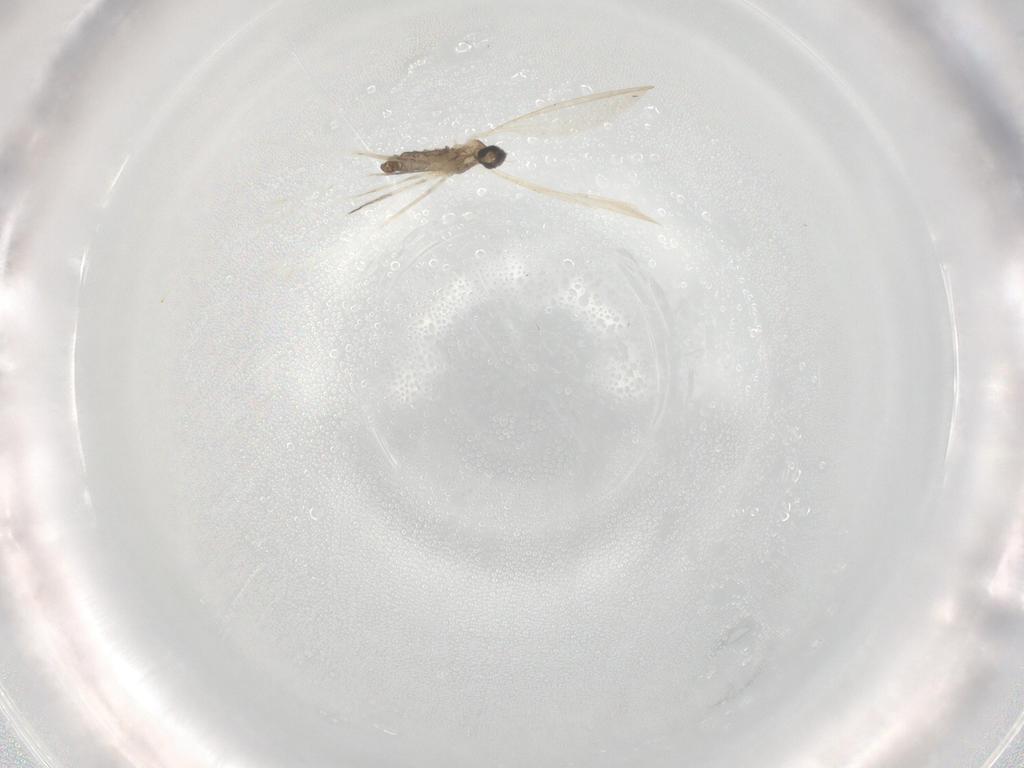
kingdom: Animalia
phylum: Arthropoda
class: Insecta
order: Diptera
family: Cecidomyiidae
